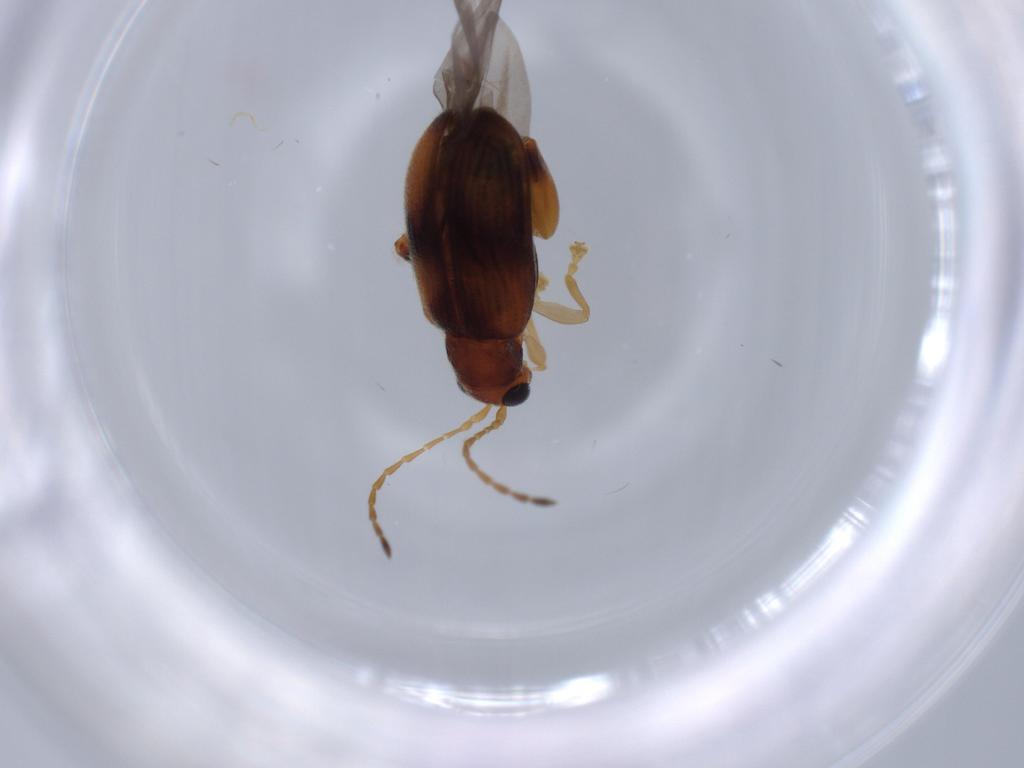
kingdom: Animalia
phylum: Arthropoda
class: Insecta
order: Coleoptera
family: Chrysomelidae
